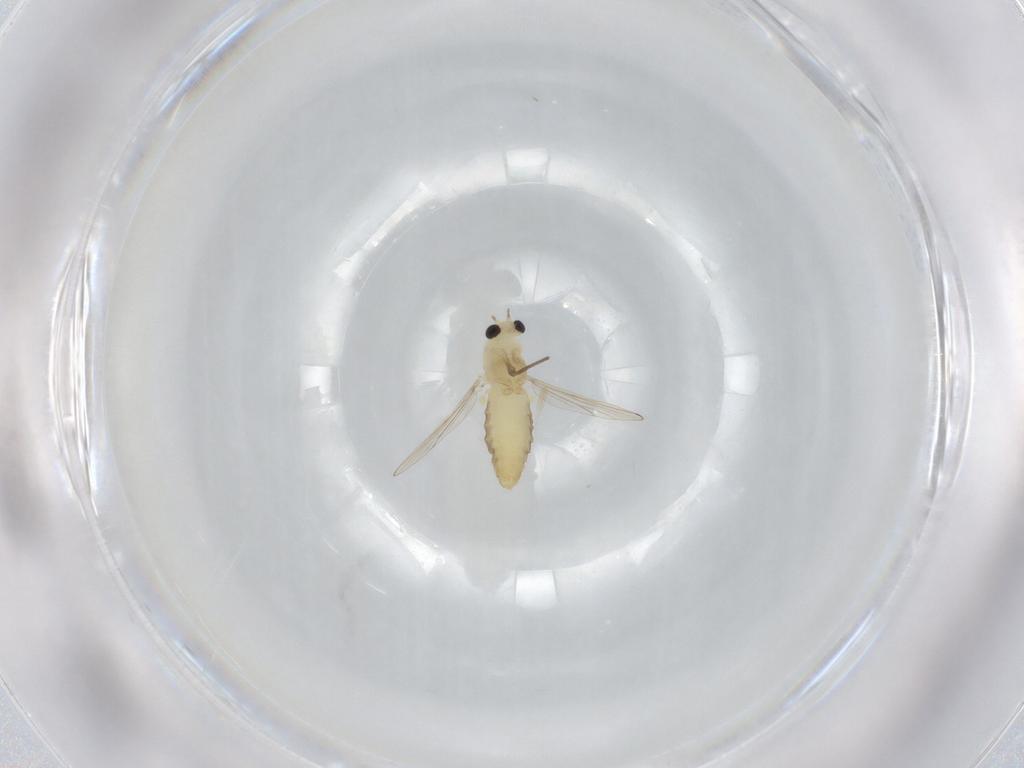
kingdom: Animalia
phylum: Arthropoda
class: Insecta
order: Diptera
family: Chironomidae
